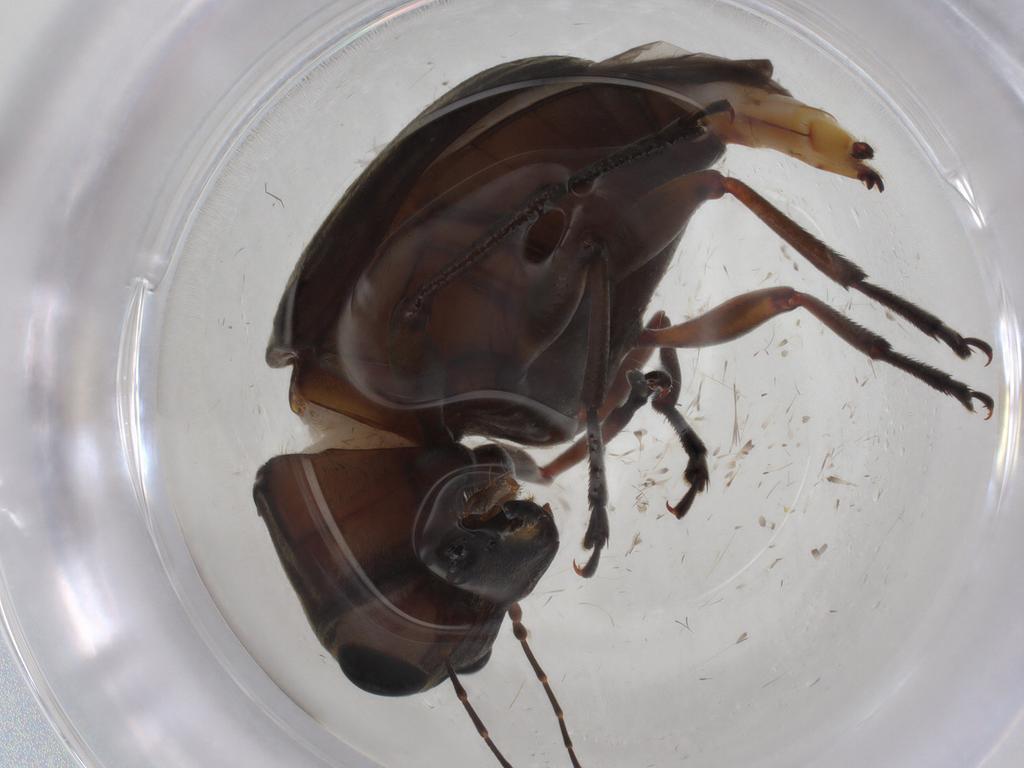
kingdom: Animalia
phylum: Arthropoda
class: Insecta
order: Coleoptera
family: Anthribidae
